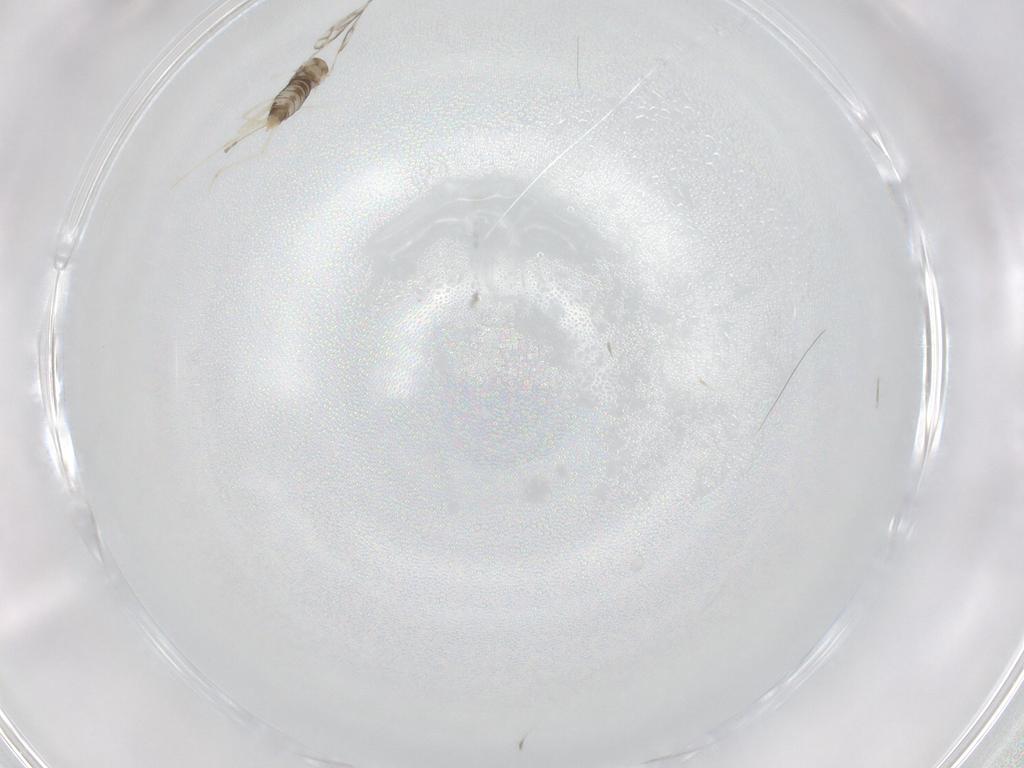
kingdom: Animalia
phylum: Arthropoda
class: Insecta
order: Diptera
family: Cecidomyiidae
